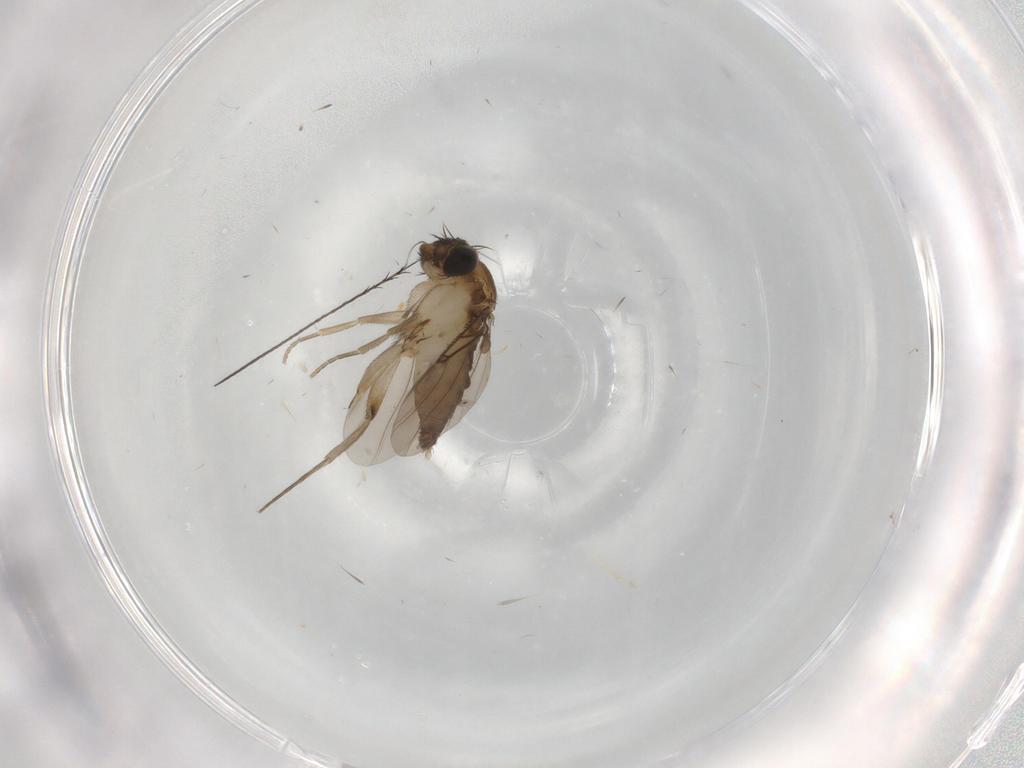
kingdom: Animalia
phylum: Arthropoda
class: Insecta
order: Diptera
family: Phoridae
